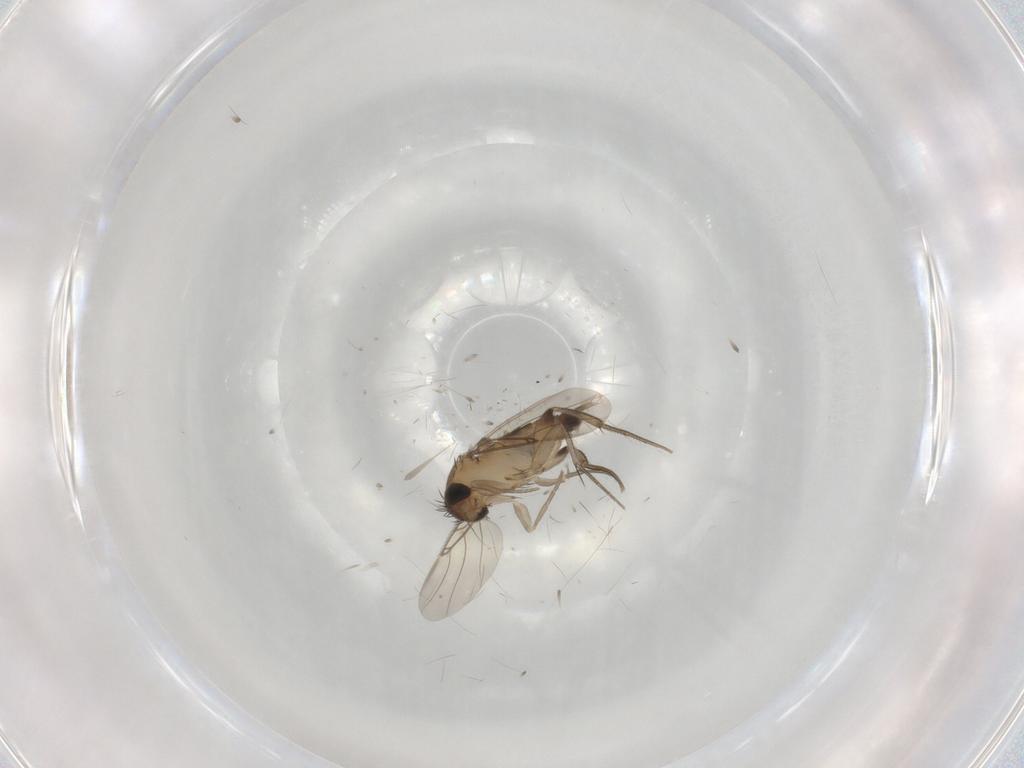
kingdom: Animalia
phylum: Arthropoda
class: Insecta
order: Diptera
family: Phoridae
